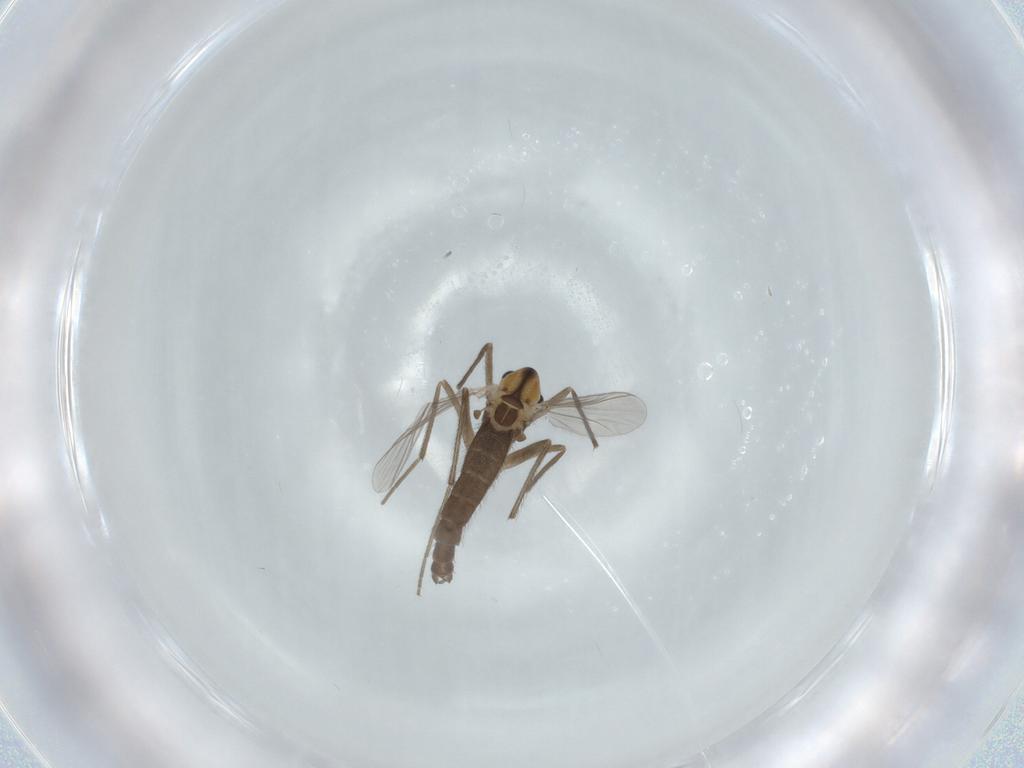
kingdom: Animalia
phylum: Arthropoda
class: Insecta
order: Diptera
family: Chironomidae
